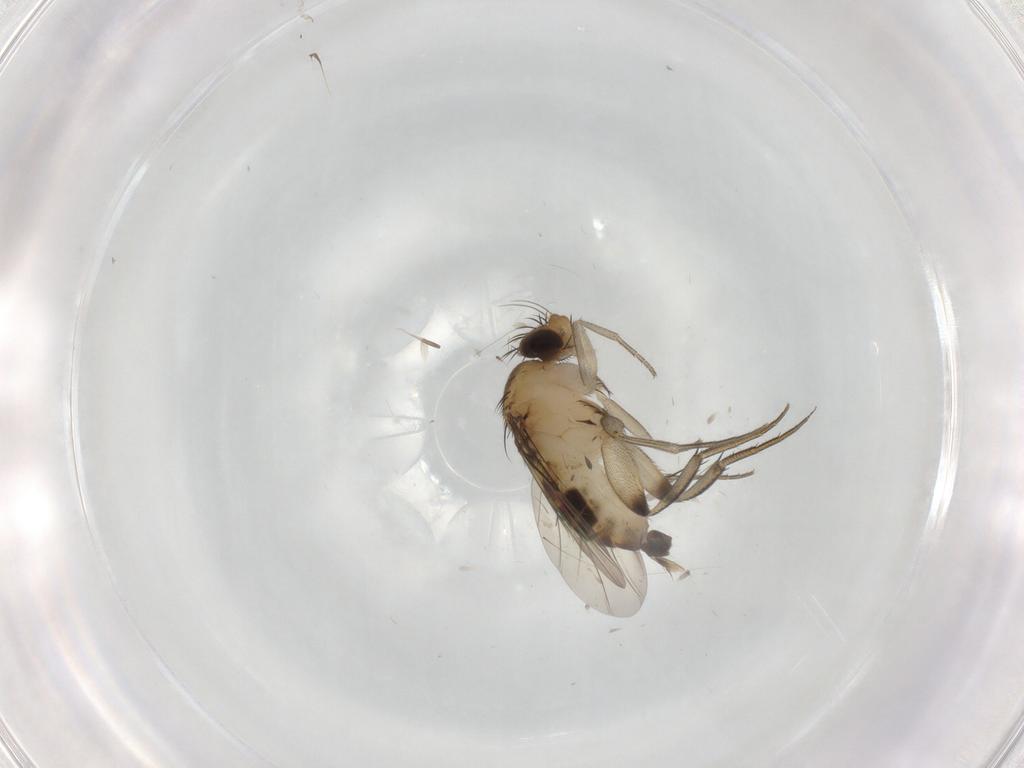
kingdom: Animalia
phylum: Arthropoda
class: Insecta
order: Diptera
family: Phoridae
